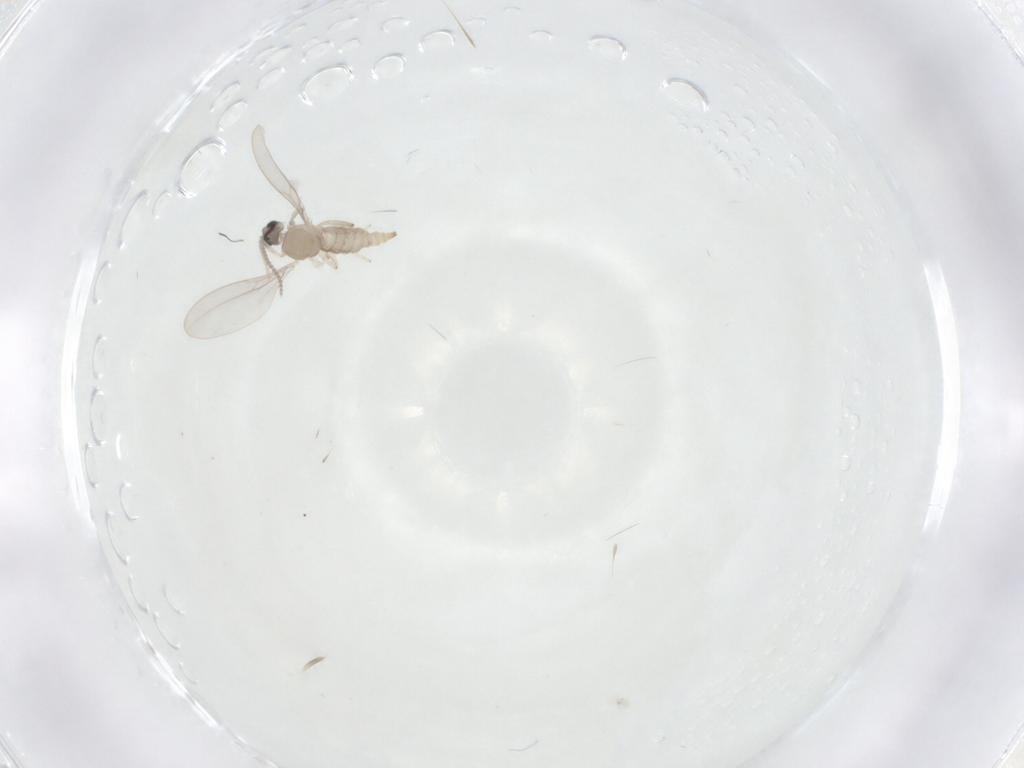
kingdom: Animalia
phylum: Arthropoda
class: Insecta
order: Diptera
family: Cecidomyiidae
